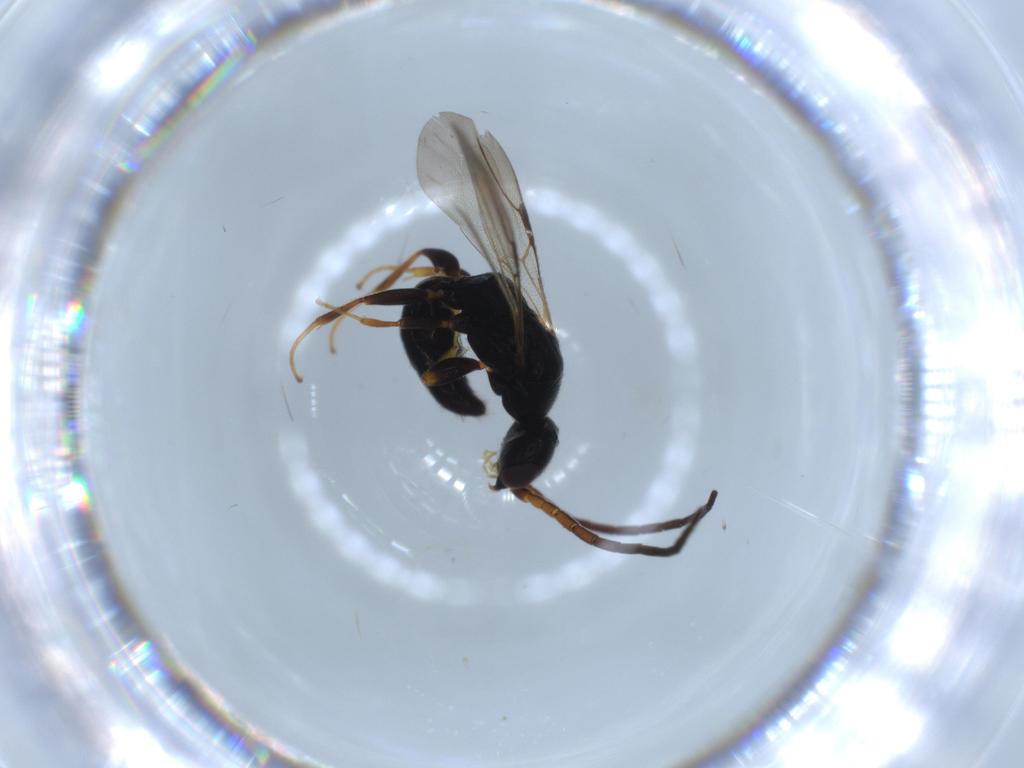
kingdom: Animalia
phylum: Arthropoda
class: Insecta
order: Hymenoptera
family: Bethylidae
